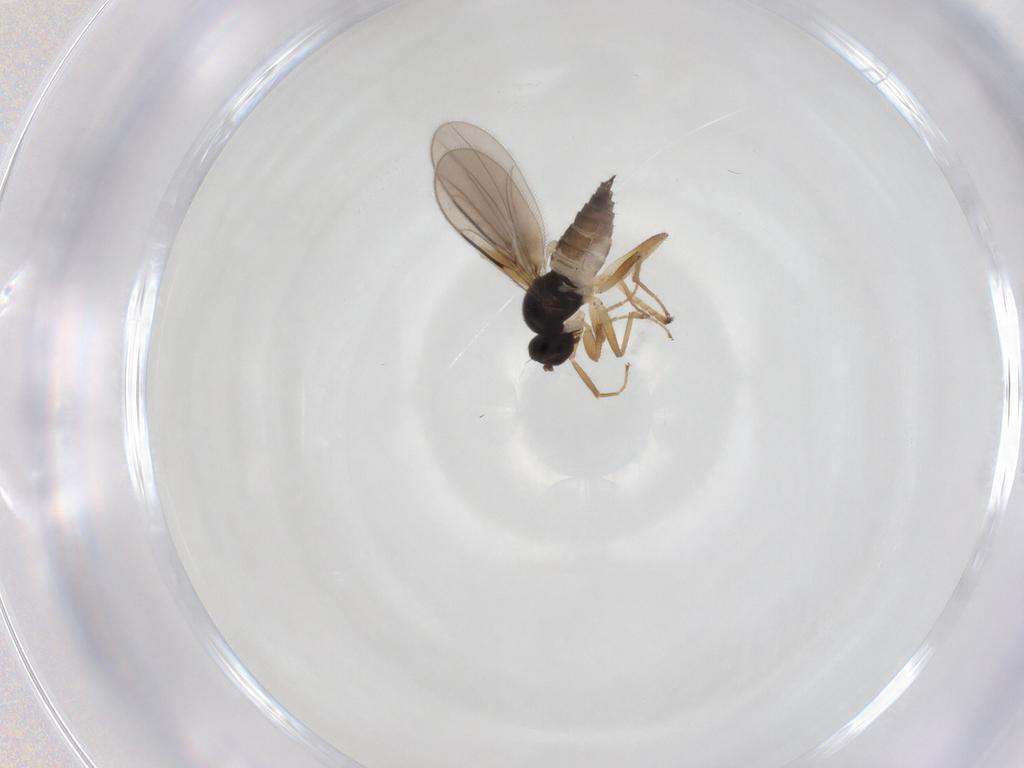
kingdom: Animalia
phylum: Arthropoda
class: Insecta
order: Diptera
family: Hybotidae
